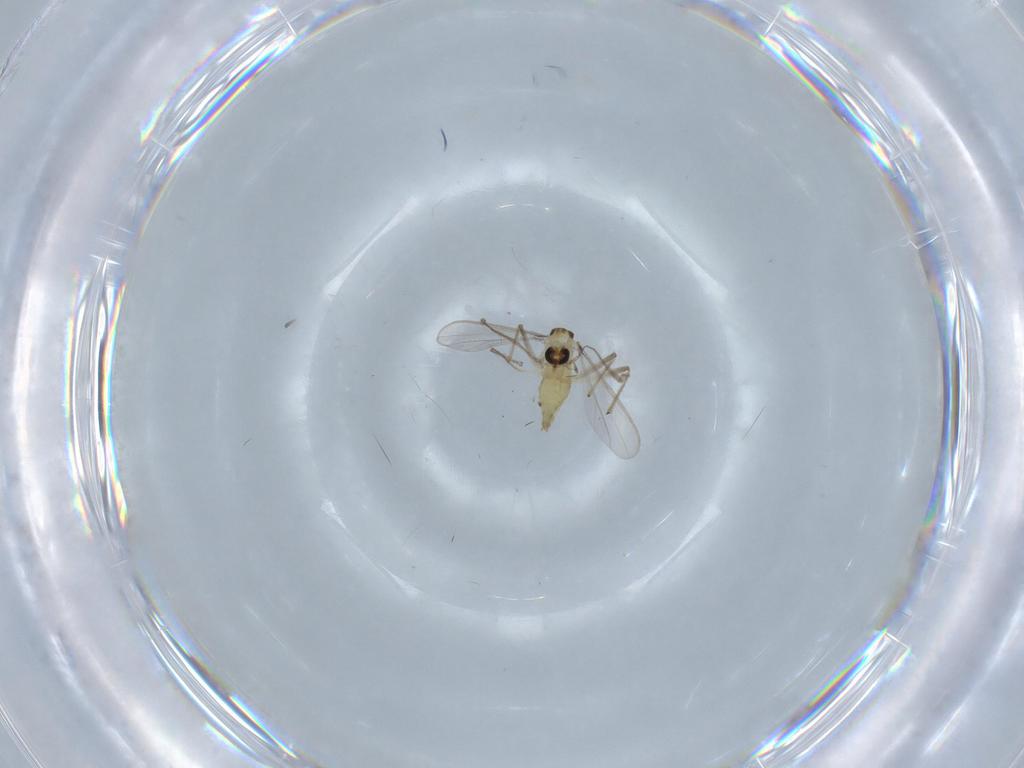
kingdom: Animalia
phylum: Arthropoda
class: Insecta
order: Diptera
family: Chironomidae
